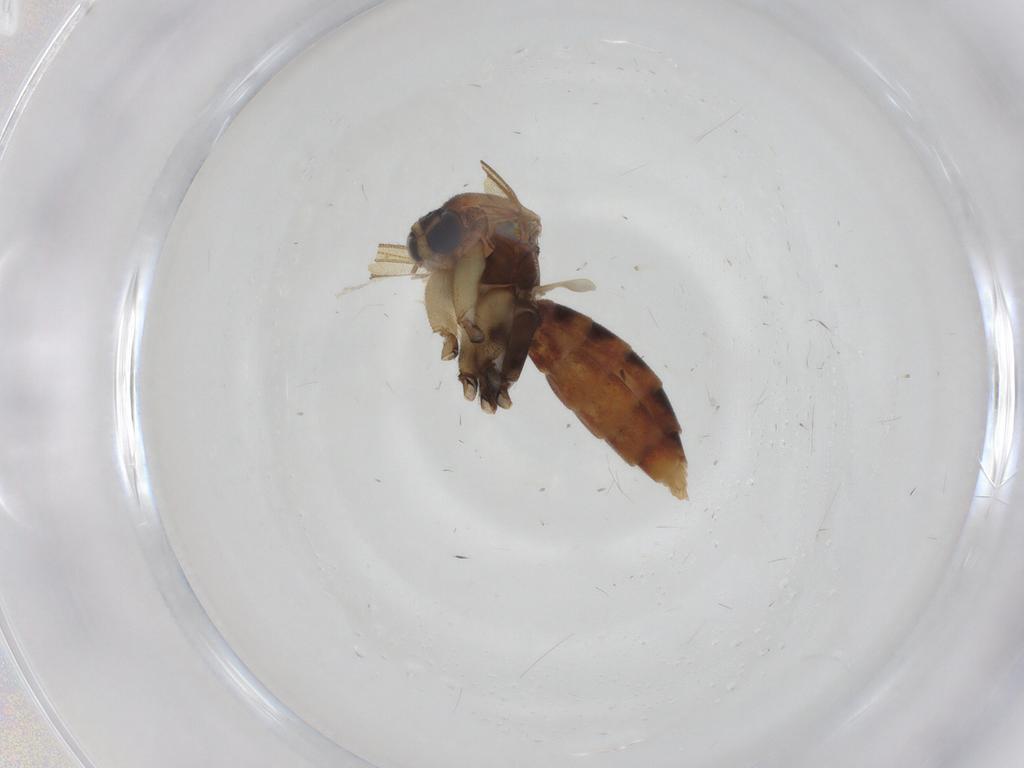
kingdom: Animalia
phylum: Arthropoda
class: Insecta
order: Diptera
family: Mycetophilidae
